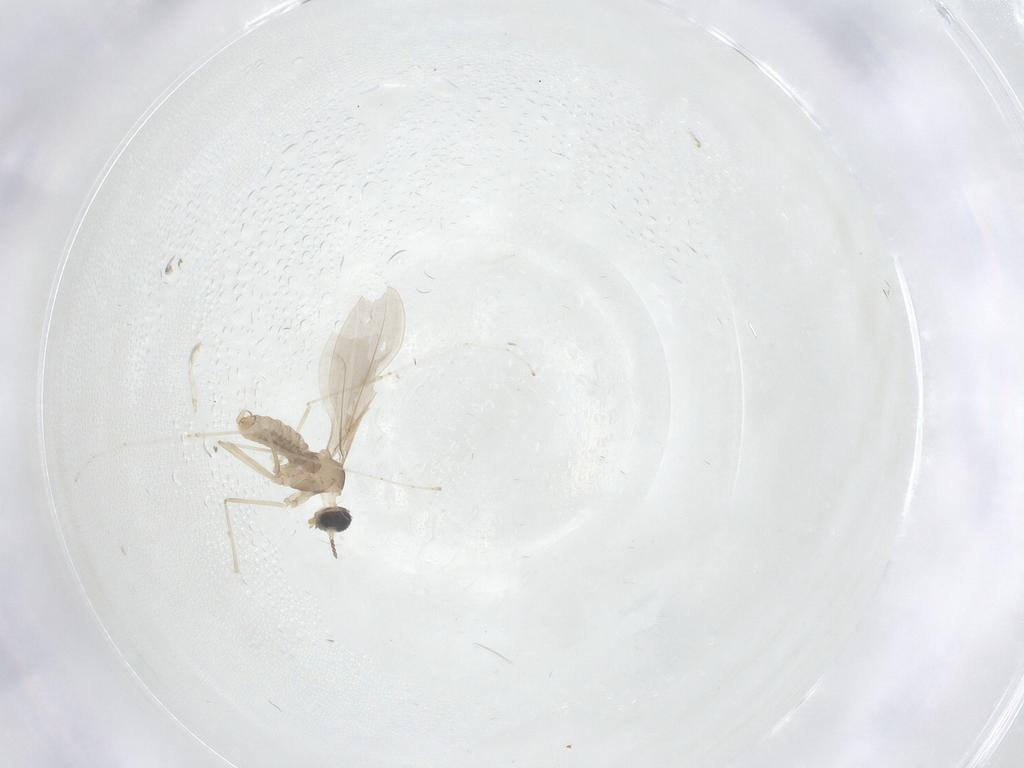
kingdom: Animalia
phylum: Arthropoda
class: Insecta
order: Diptera
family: Cecidomyiidae
